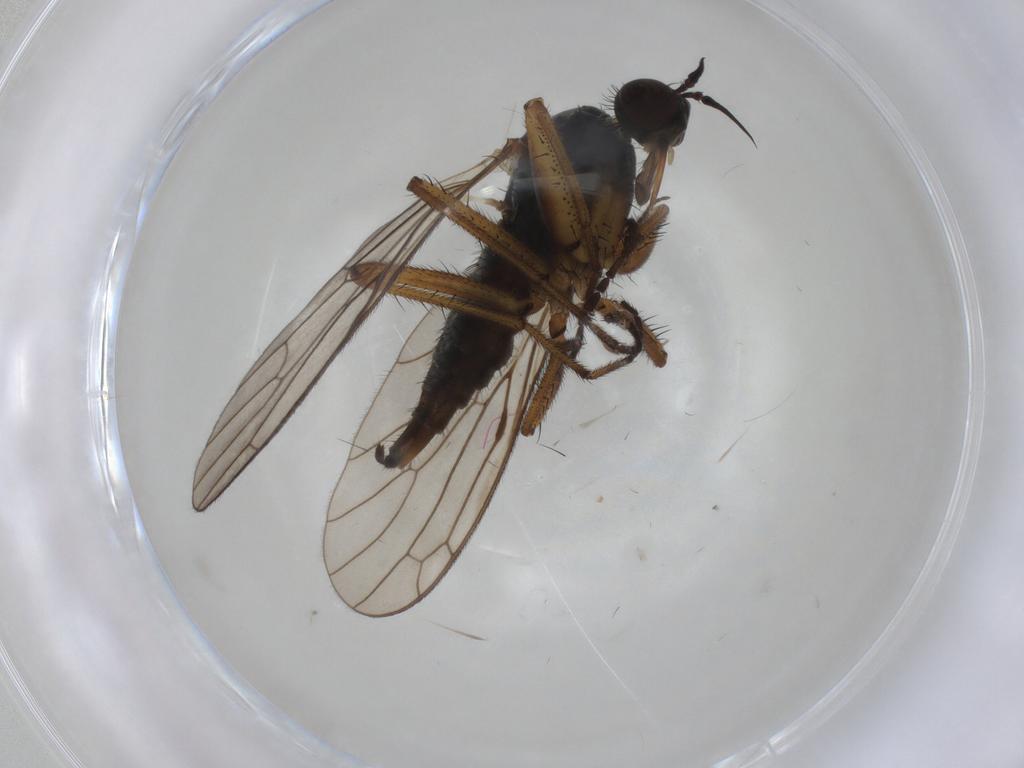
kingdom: Animalia
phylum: Arthropoda
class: Insecta
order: Diptera
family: Empididae
